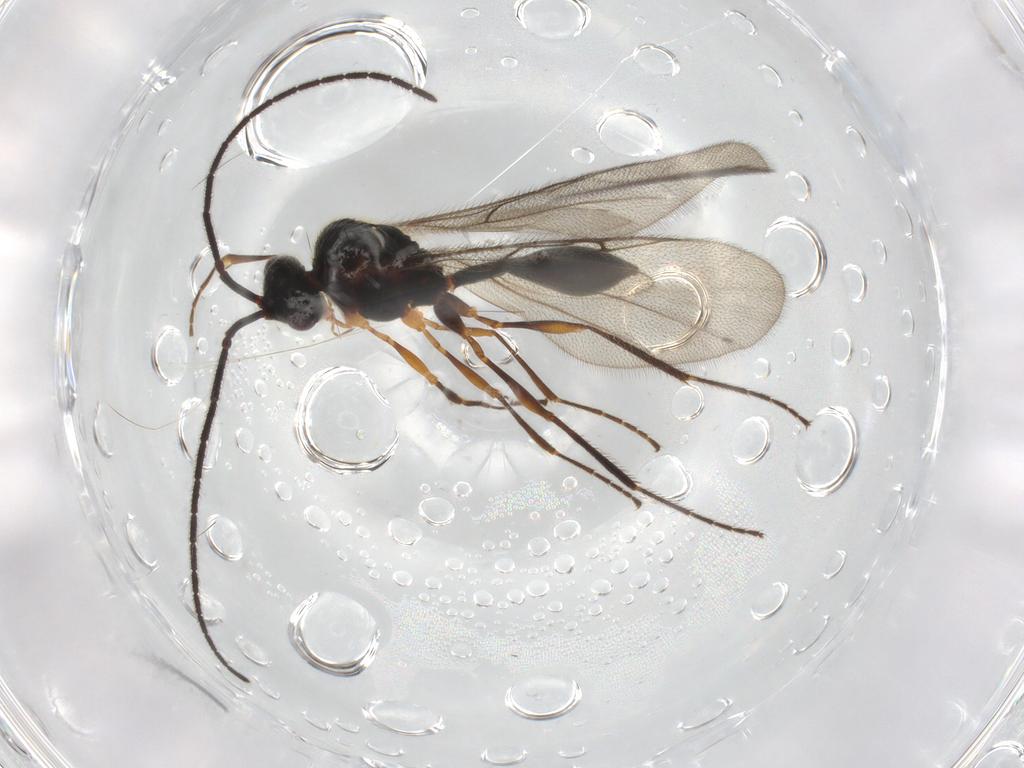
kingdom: Animalia
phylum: Arthropoda
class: Insecta
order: Hymenoptera
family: Diapriidae
